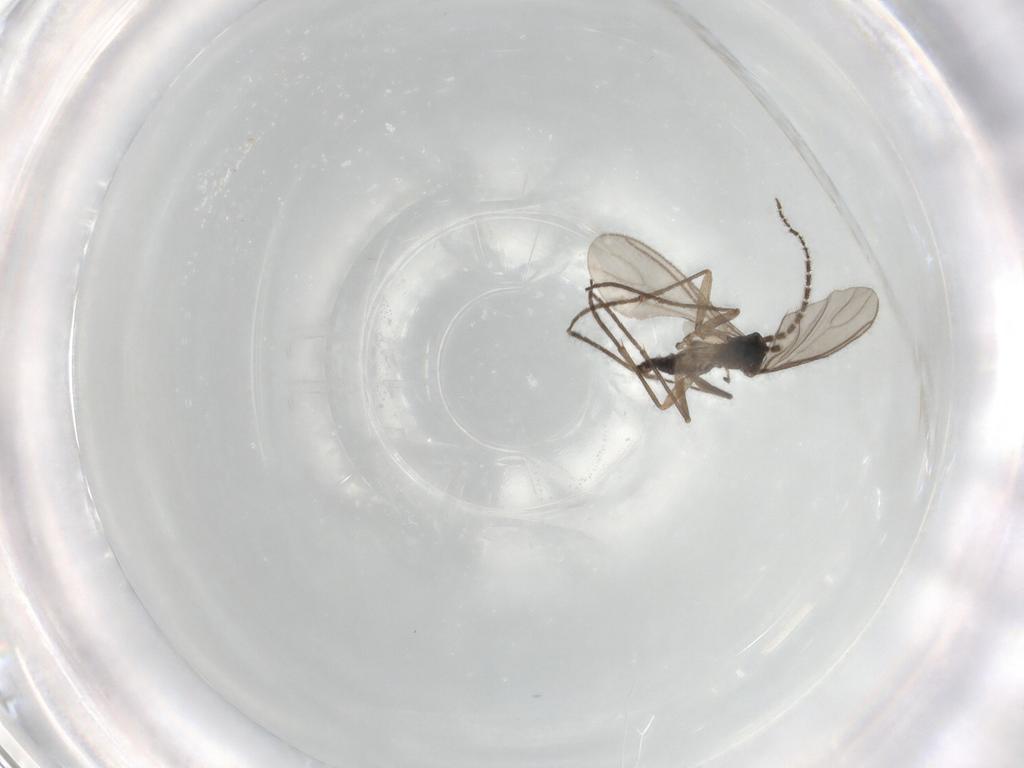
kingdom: Animalia
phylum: Arthropoda
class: Insecta
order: Diptera
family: Sciaridae
